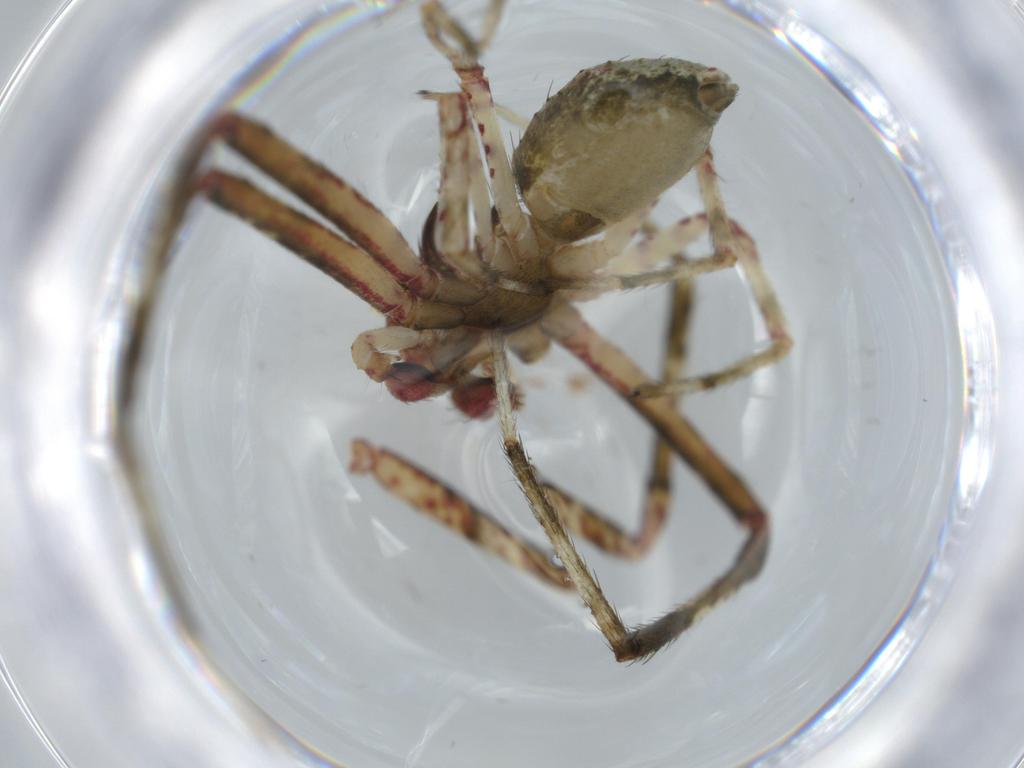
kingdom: Animalia
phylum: Arthropoda
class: Arachnida
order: Araneae
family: Thomisidae
